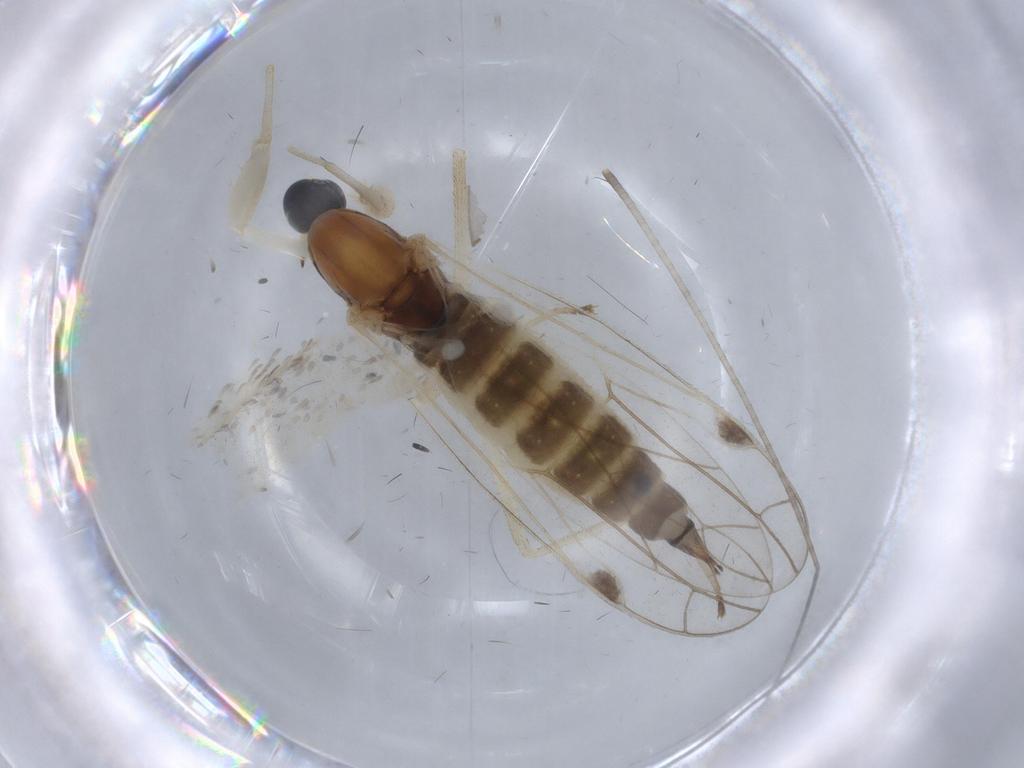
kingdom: Animalia
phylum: Arthropoda
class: Insecta
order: Diptera
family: Empididae
